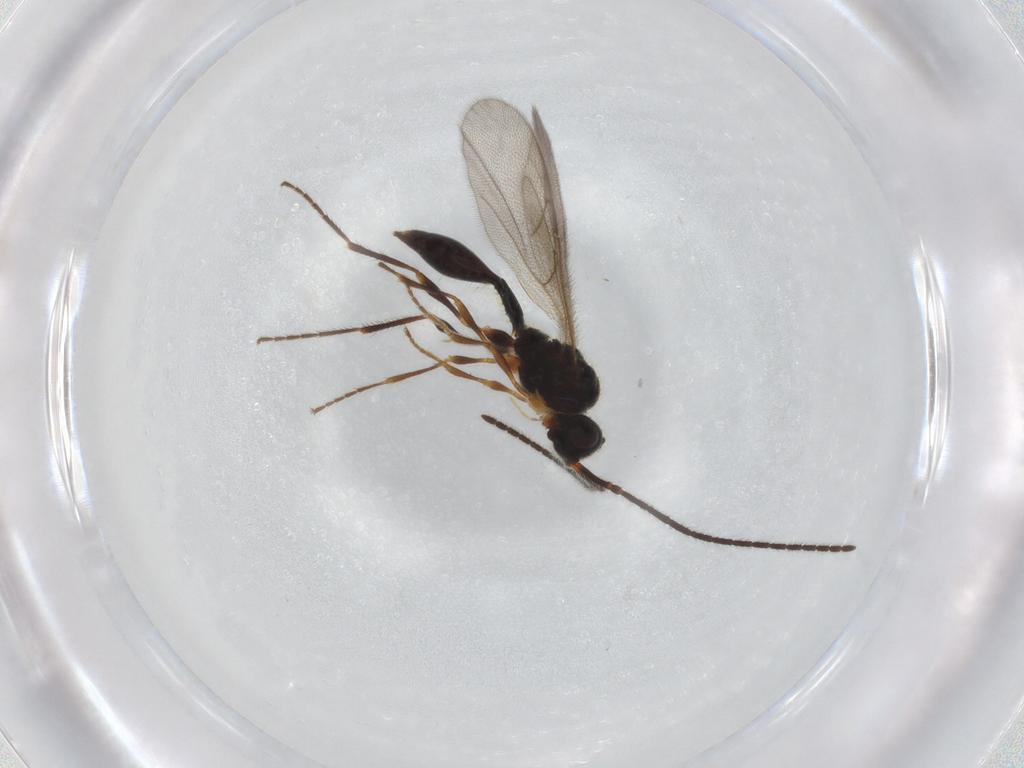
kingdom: Animalia
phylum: Arthropoda
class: Insecta
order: Hymenoptera
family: Diapriidae
